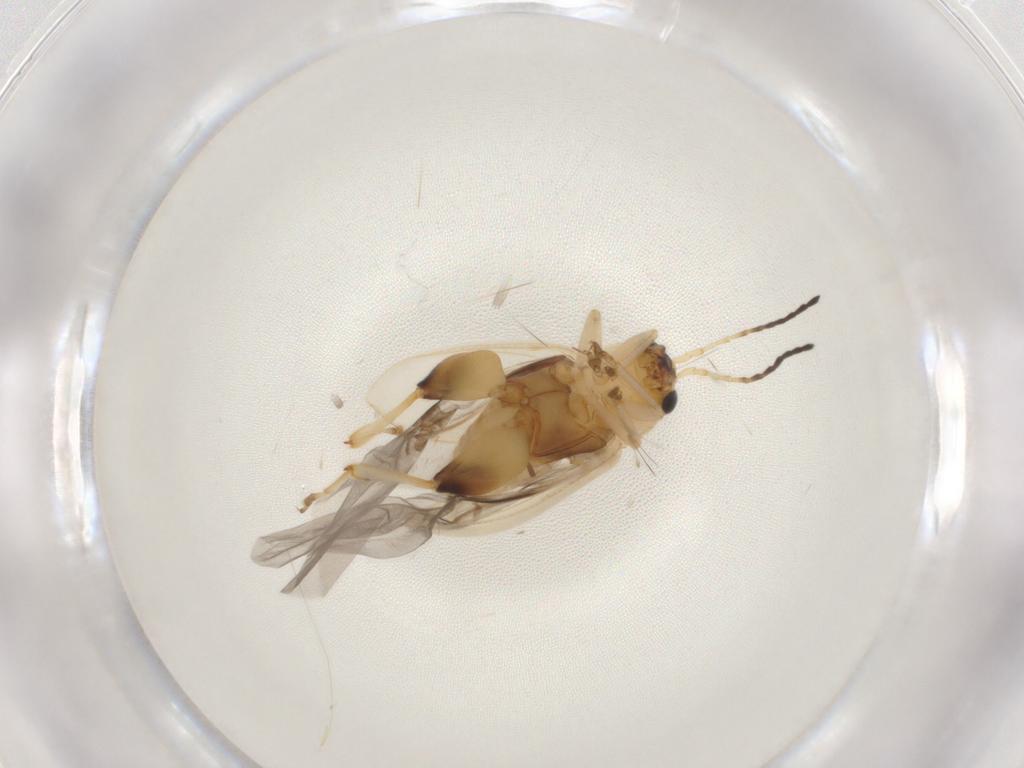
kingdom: Animalia
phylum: Arthropoda
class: Insecta
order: Coleoptera
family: Chrysomelidae
